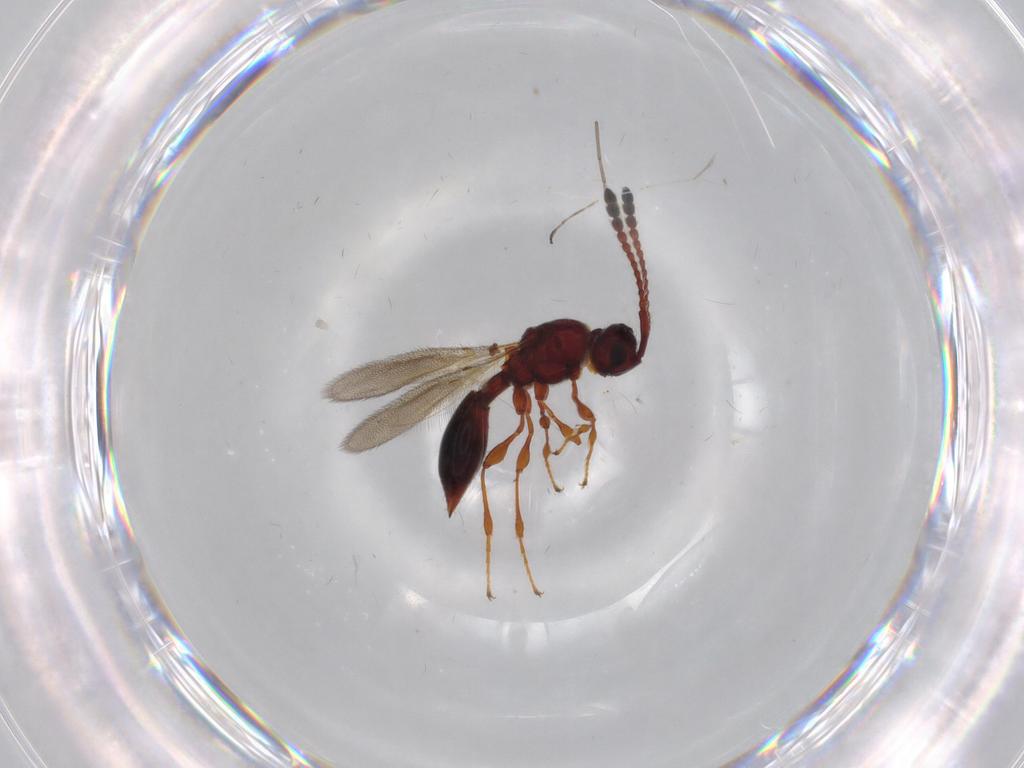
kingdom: Animalia
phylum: Arthropoda
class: Insecta
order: Hymenoptera
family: Diapriidae
